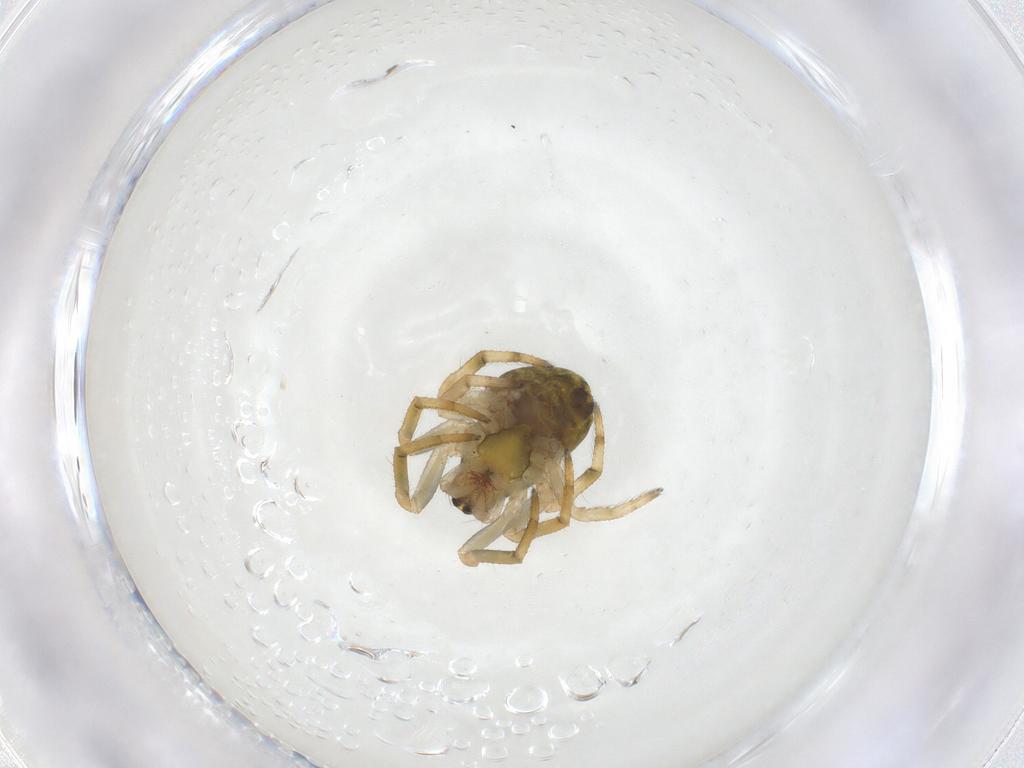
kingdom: Animalia
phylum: Arthropoda
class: Arachnida
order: Araneae
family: Araneidae
